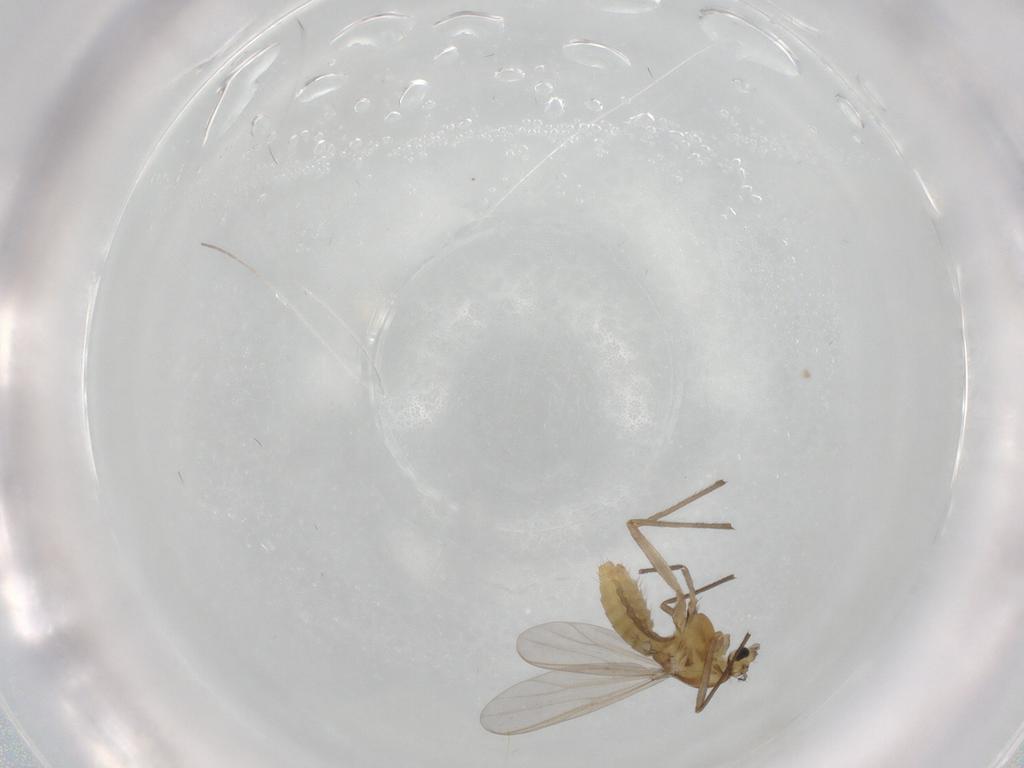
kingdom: Animalia
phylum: Arthropoda
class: Insecta
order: Diptera
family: Chironomidae
